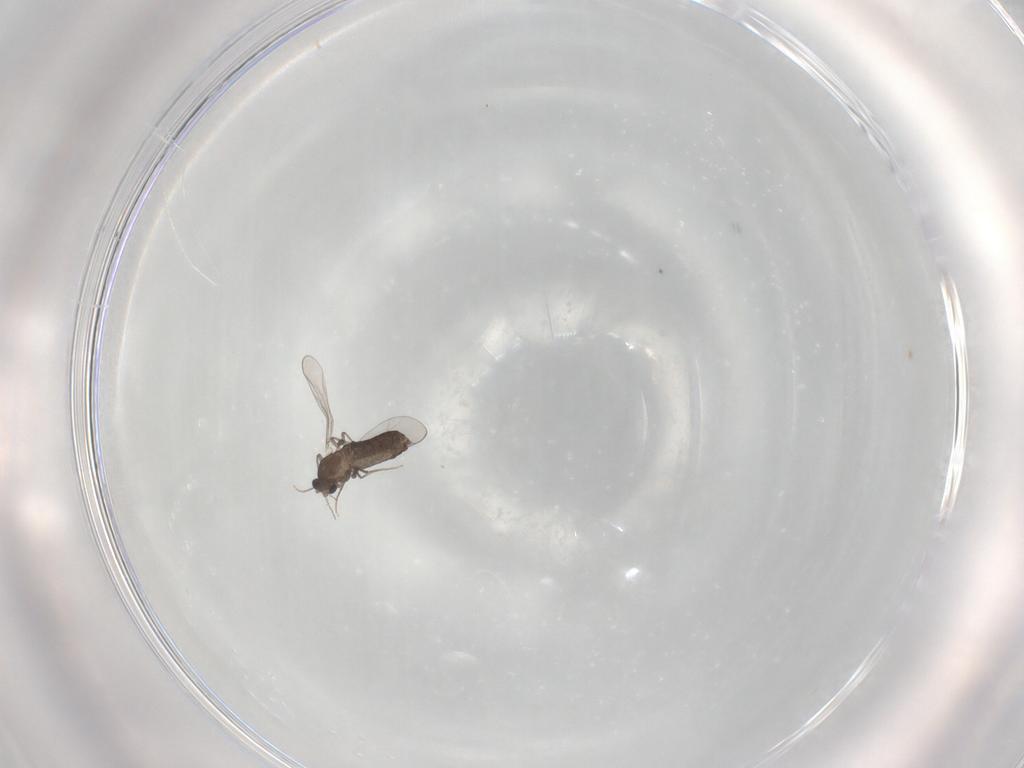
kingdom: Animalia
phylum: Arthropoda
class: Insecta
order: Diptera
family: Chironomidae
